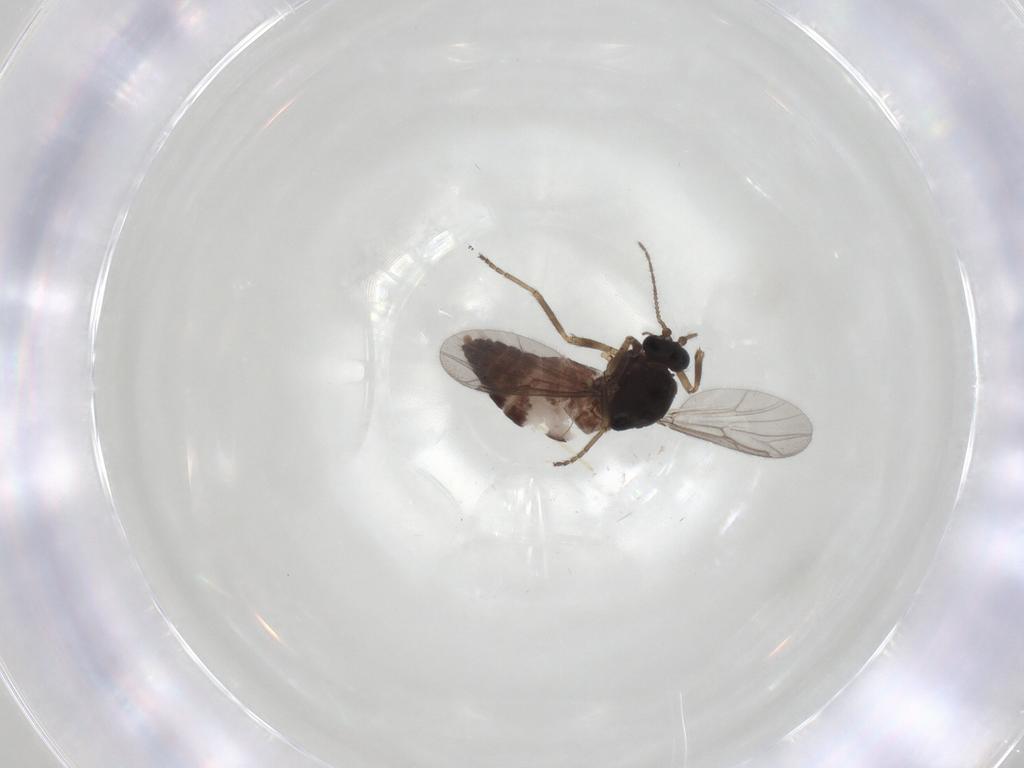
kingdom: Animalia
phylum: Arthropoda
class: Insecta
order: Diptera
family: Ceratopogonidae
